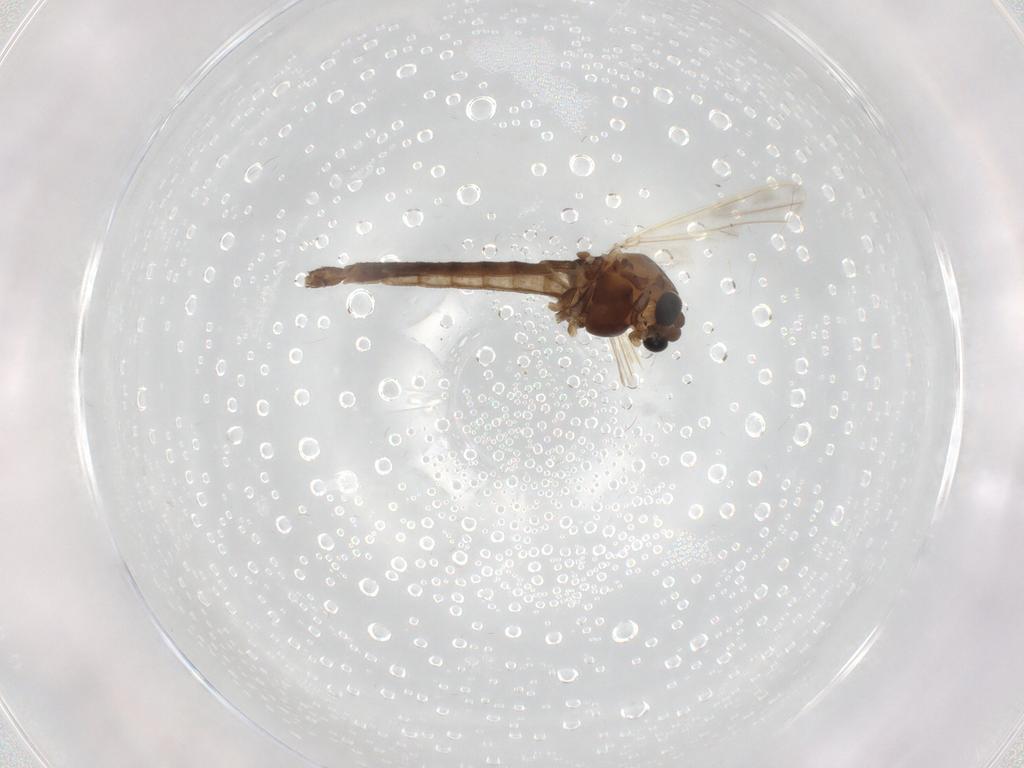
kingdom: Animalia
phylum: Arthropoda
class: Insecta
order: Diptera
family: Chironomidae
